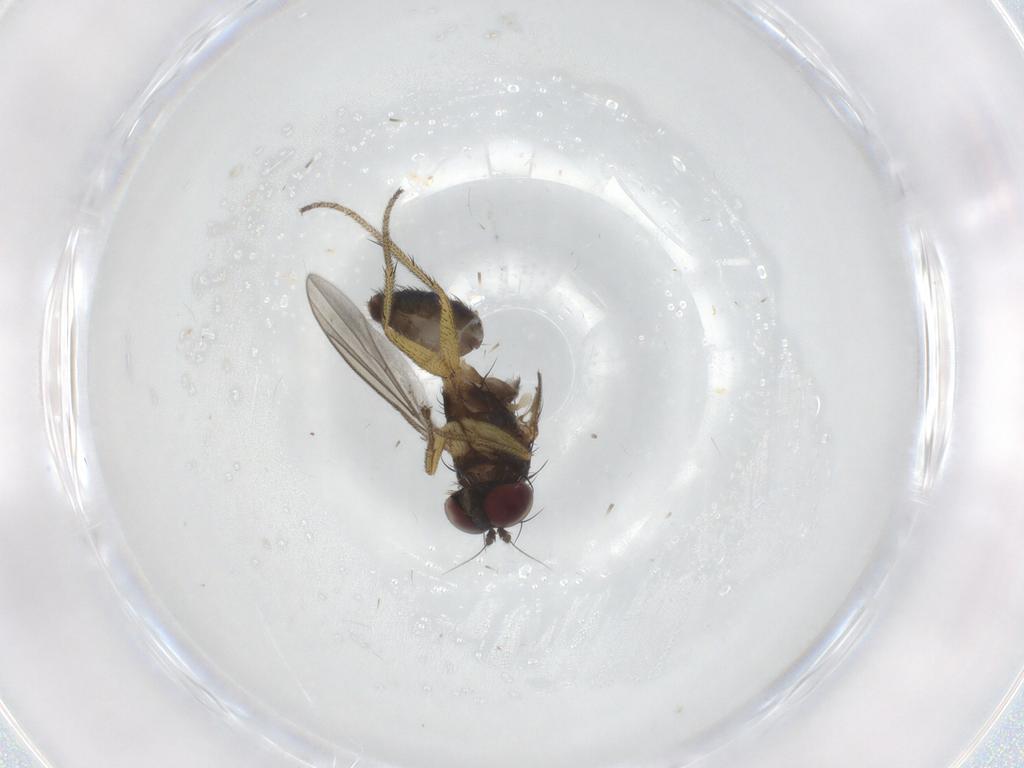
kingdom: Animalia
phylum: Arthropoda
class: Insecta
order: Diptera
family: Dolichopodidae
